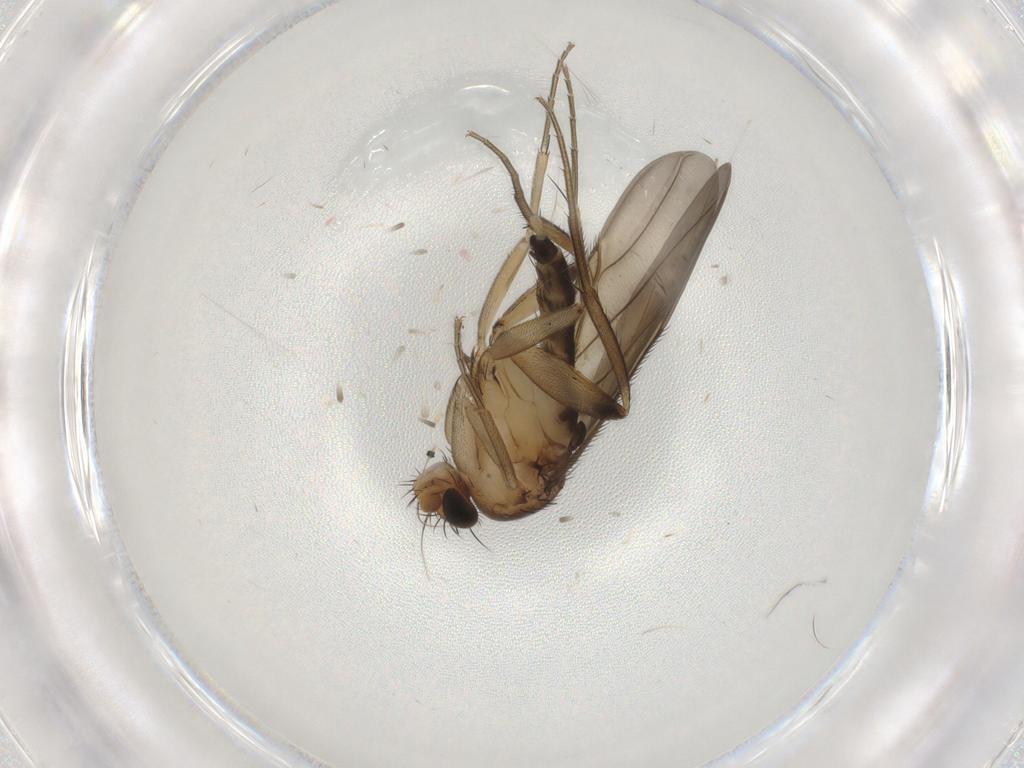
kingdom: Animalia
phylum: Arthropoda
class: Insecta
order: Diptera
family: Phoridae
